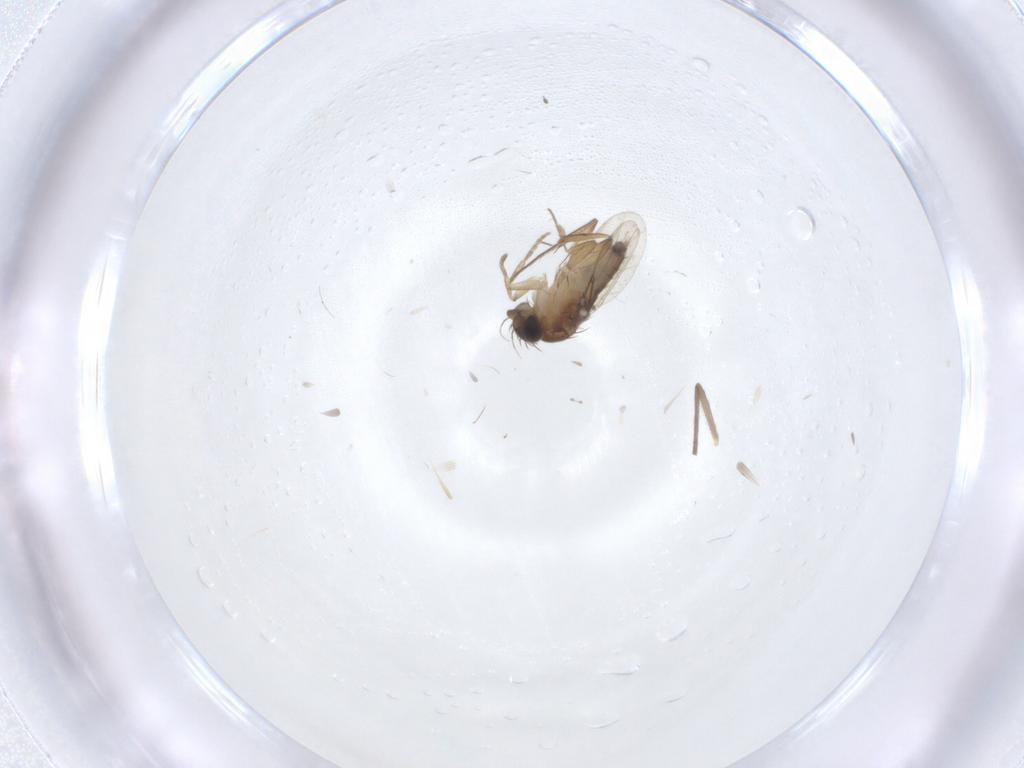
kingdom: Animalia
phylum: Arthropoda
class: Insecta
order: Diptera
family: Phoridae
